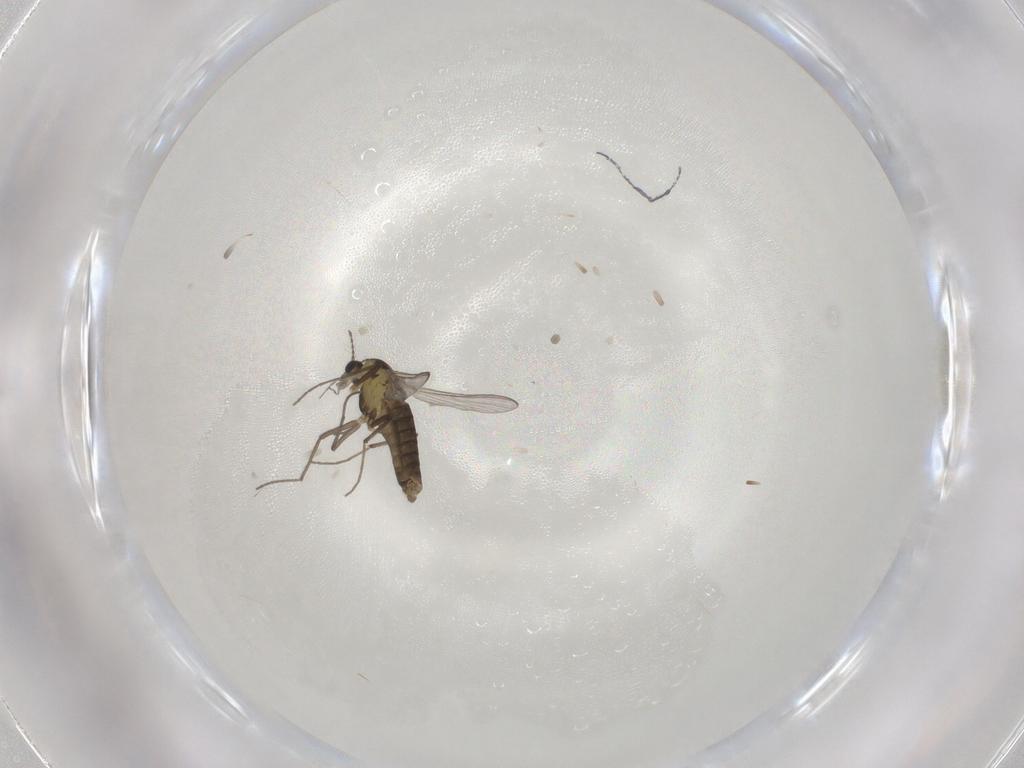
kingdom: Animalia
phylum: Arthropoda
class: Insecta
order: Diptera
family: Chironomidae
